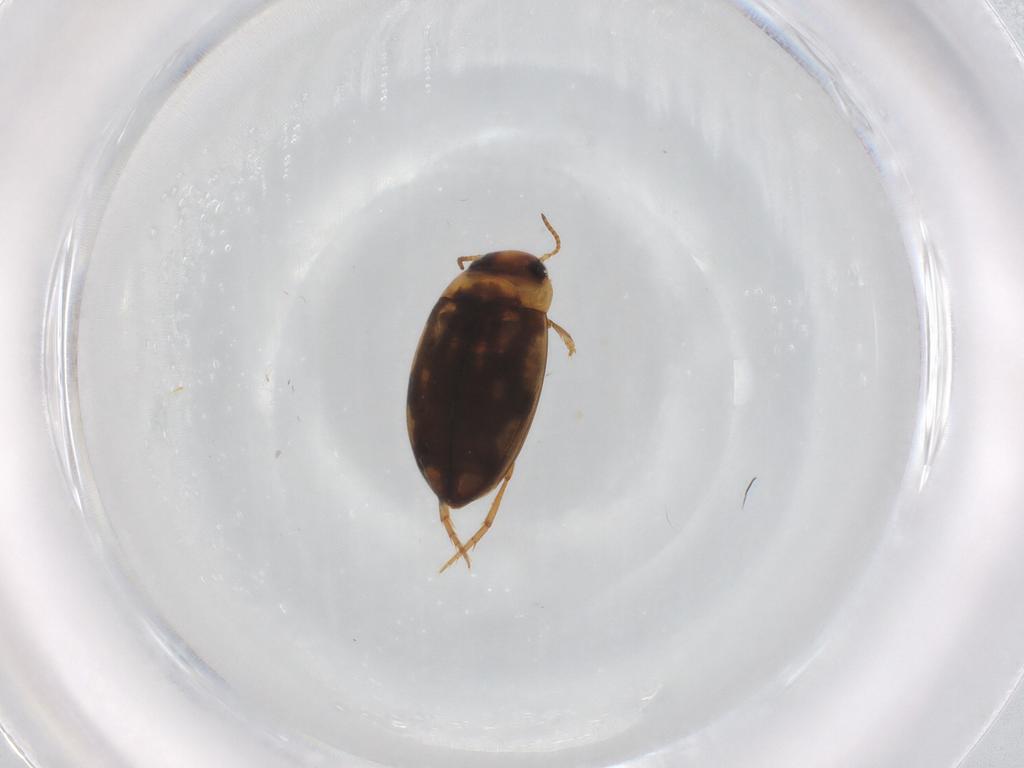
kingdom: Animalia
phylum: Arthropoda
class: Insecta
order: Coleoptera
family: Dytiscidae
